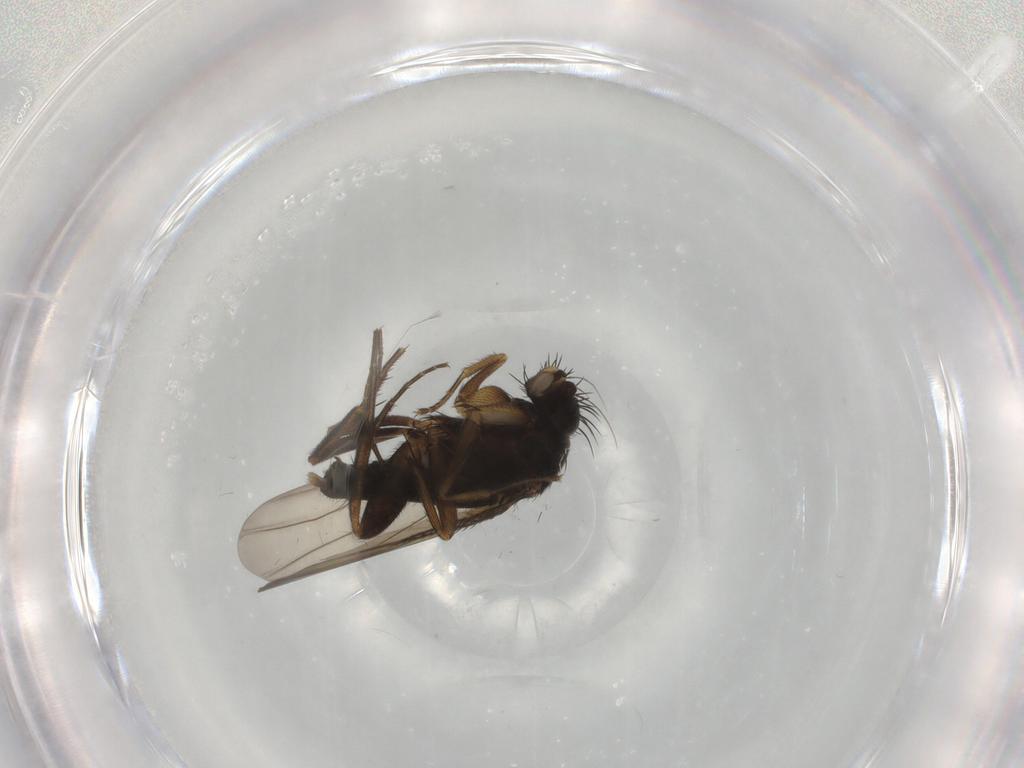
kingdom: Animalia
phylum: Arthropoda
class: Insecta
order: Diptera
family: Phoridae
